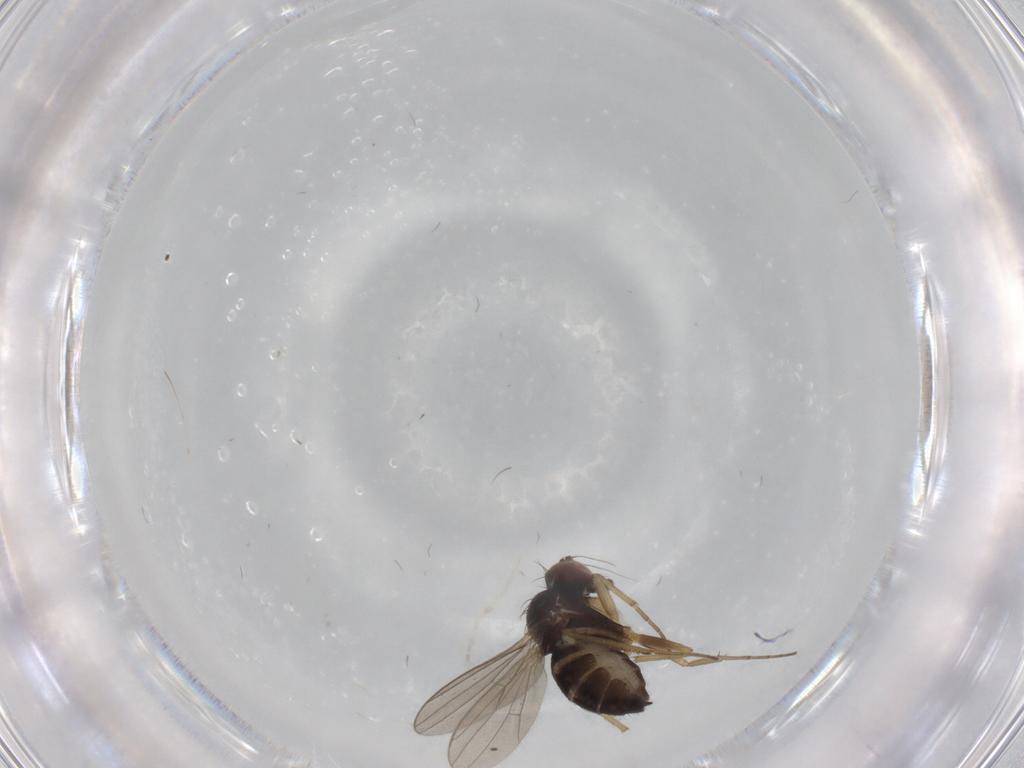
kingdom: Animalia
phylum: Arthropoda
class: Insecta
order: Diptera
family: Dolichopodidae
